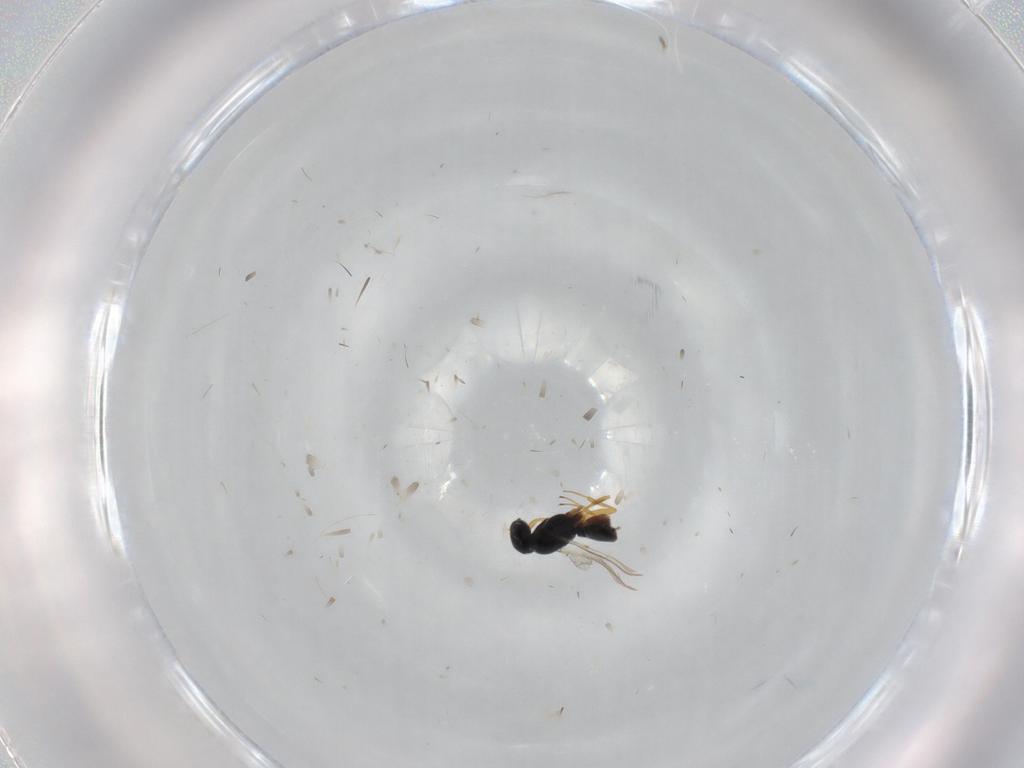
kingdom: Animalia
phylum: Arthropoda
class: Insecta
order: Hymenoptera
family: Scelionidae
